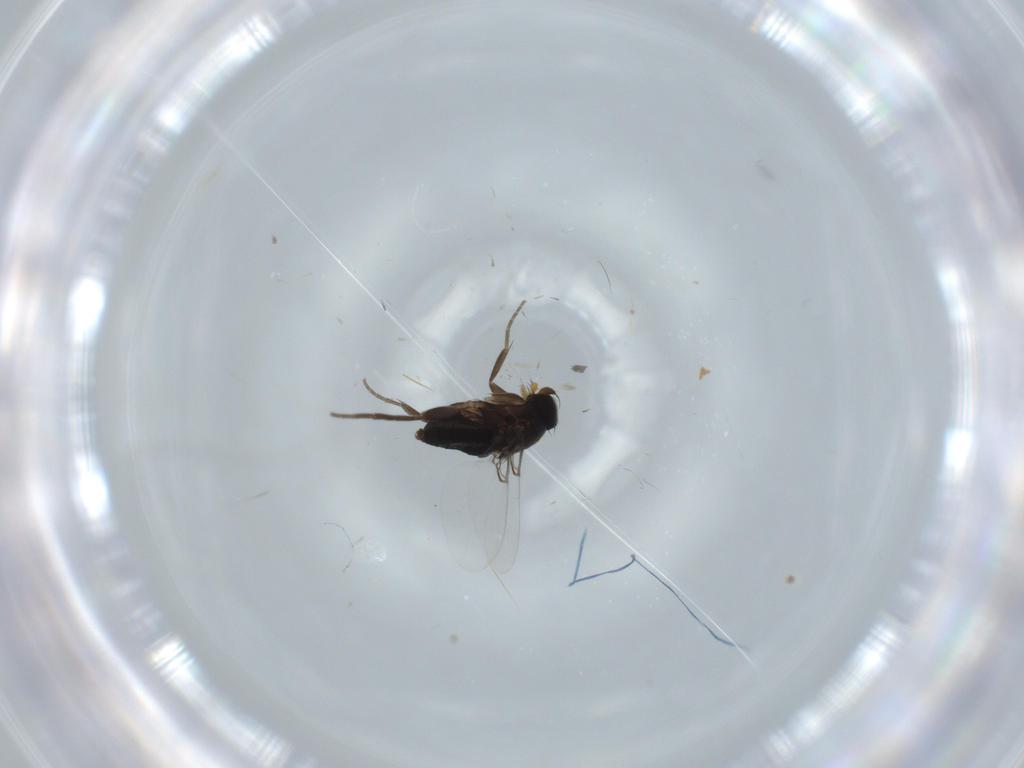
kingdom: Animalia
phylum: Arthropoda
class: Insecta
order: Diptera
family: Phoridae
